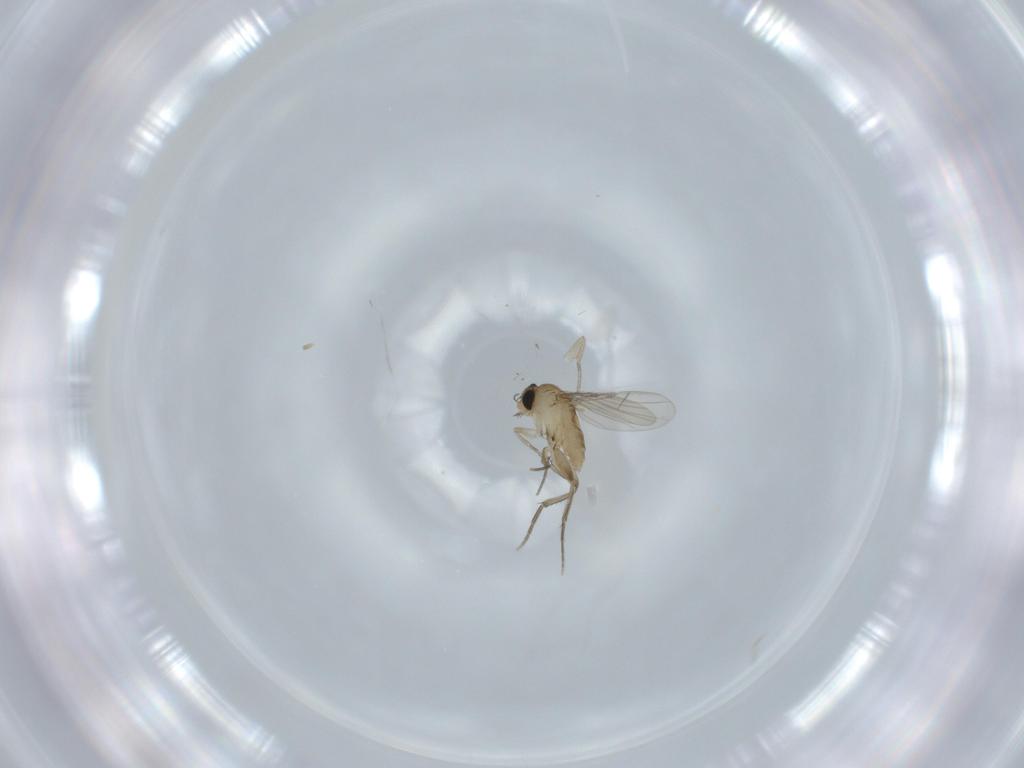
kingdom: Animalia
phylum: Arthropoda
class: Insecta
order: Diptera
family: Phoridae
